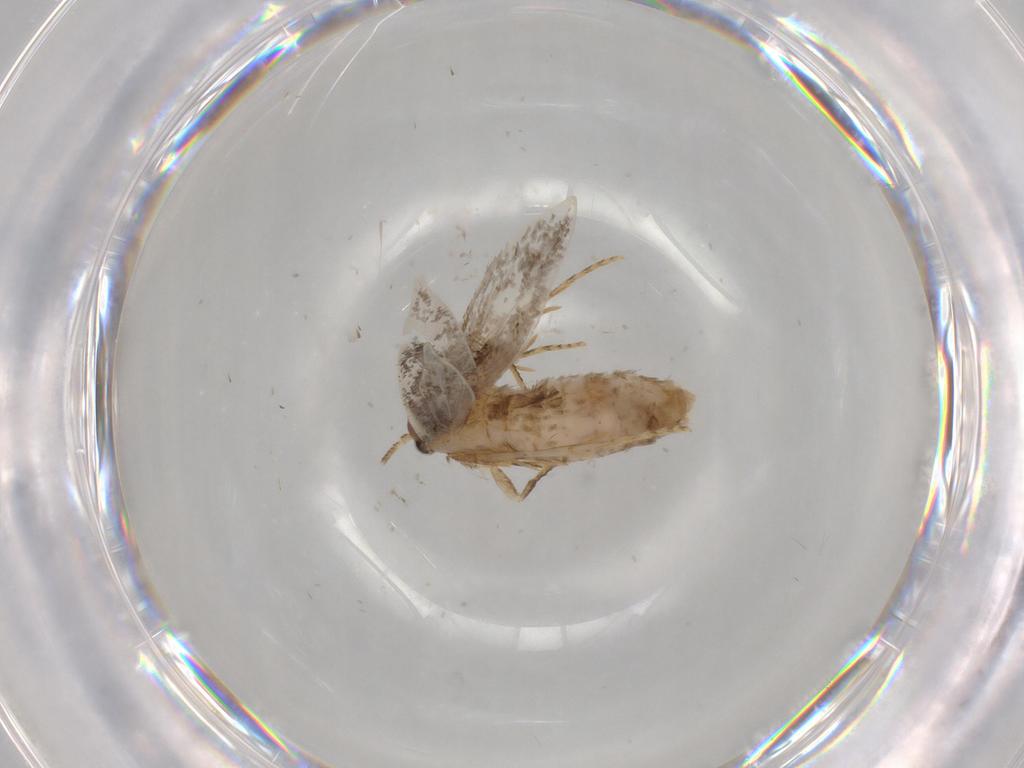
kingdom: Animalia
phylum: Arthropoda
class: Insecta
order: Lepidoptera
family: Tineidae
